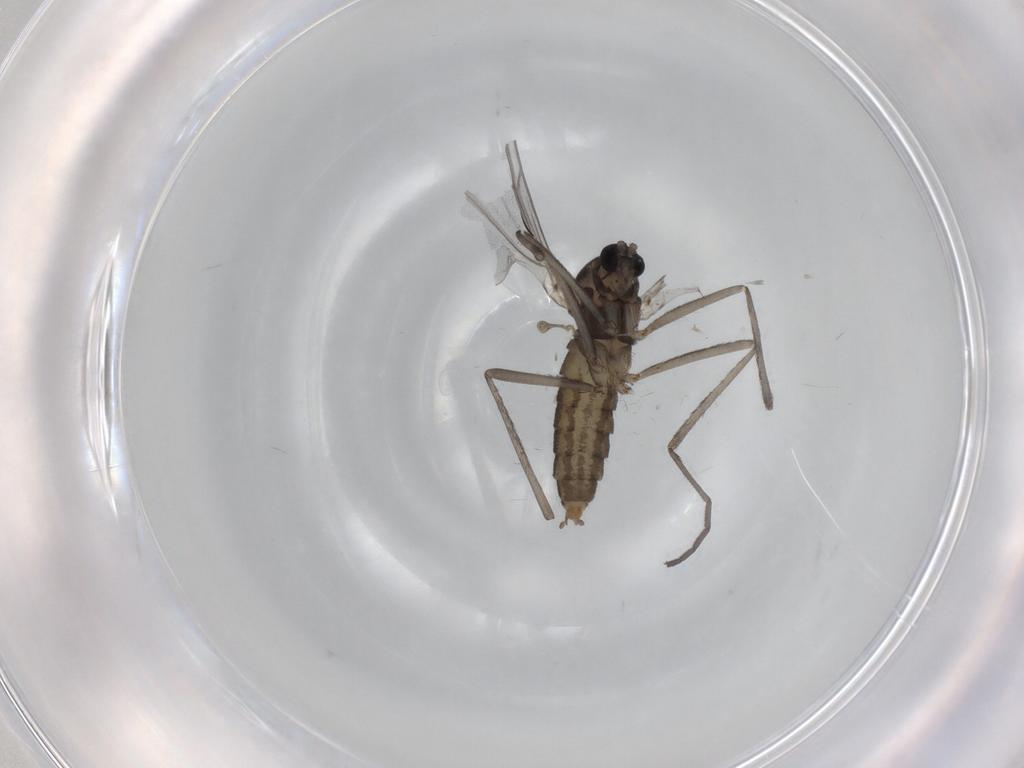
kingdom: Animalia
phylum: Arthropoda
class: Insecta
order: Diptera
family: Cecidomyiidae
